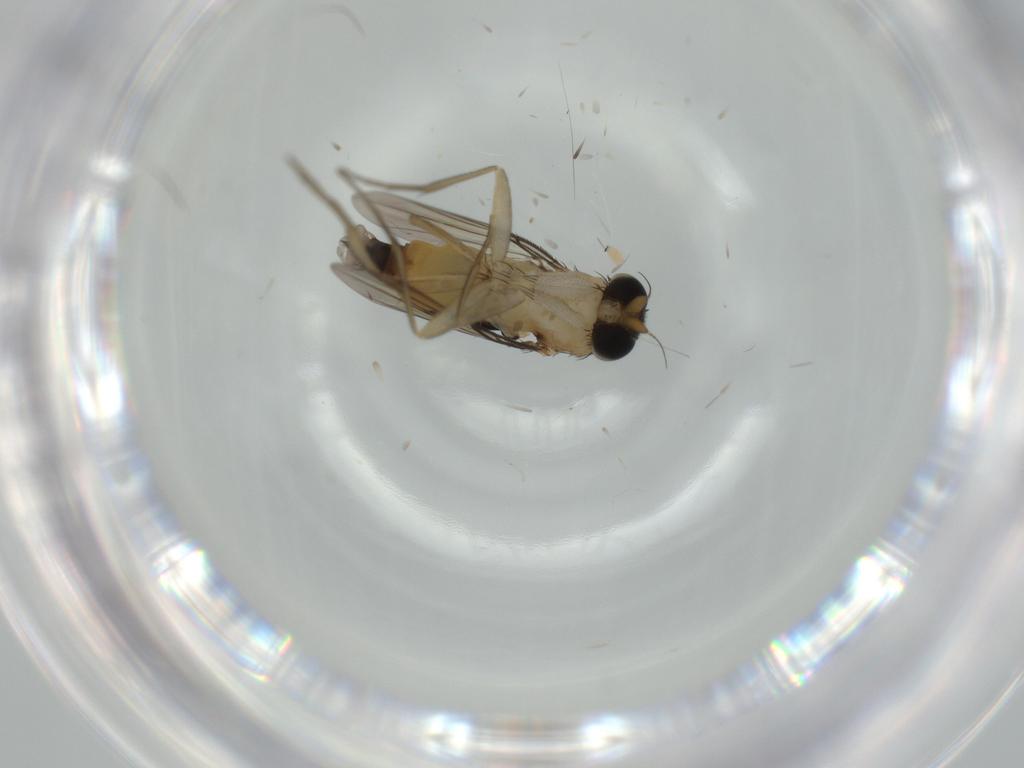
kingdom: Animalia
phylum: Arthropoda
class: Insecta
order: Diptera
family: Phoridae
